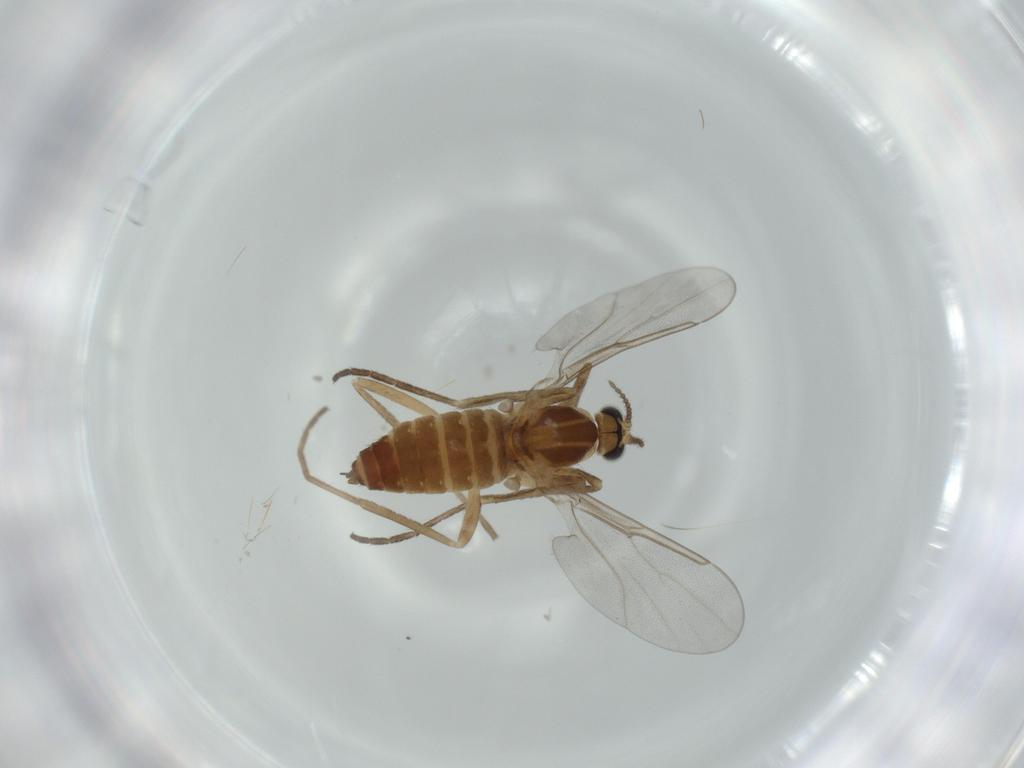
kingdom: Animalia
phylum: Arthropoda
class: Insecta
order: Diptera
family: Cecidomyiidae
